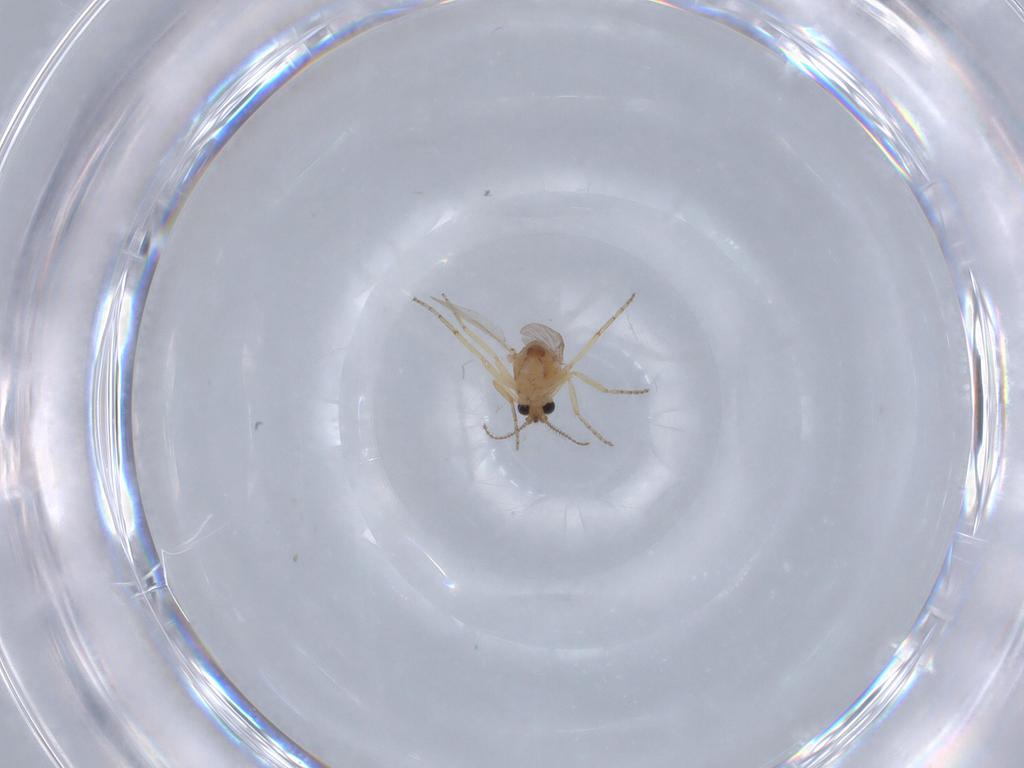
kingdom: Animalia
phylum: Arthropoda
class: Insecta
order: Diptera
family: Ceratopogonidae
